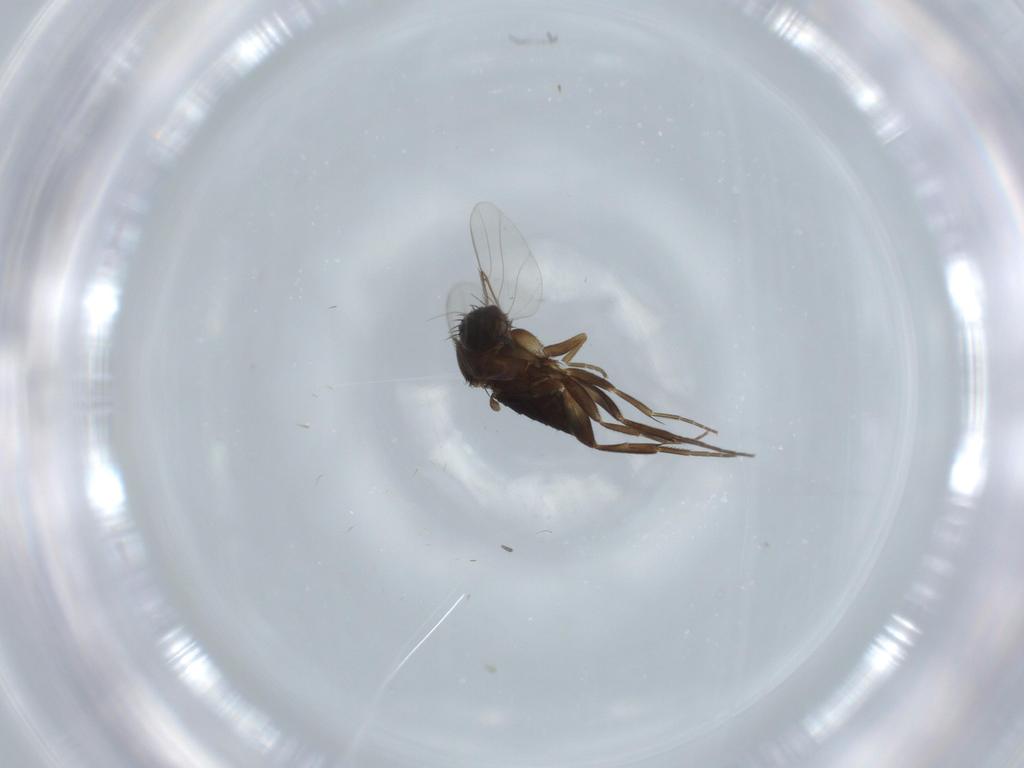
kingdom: Animalia
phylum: Arthropoda
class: Insecta
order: Diptera
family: Phoridae
